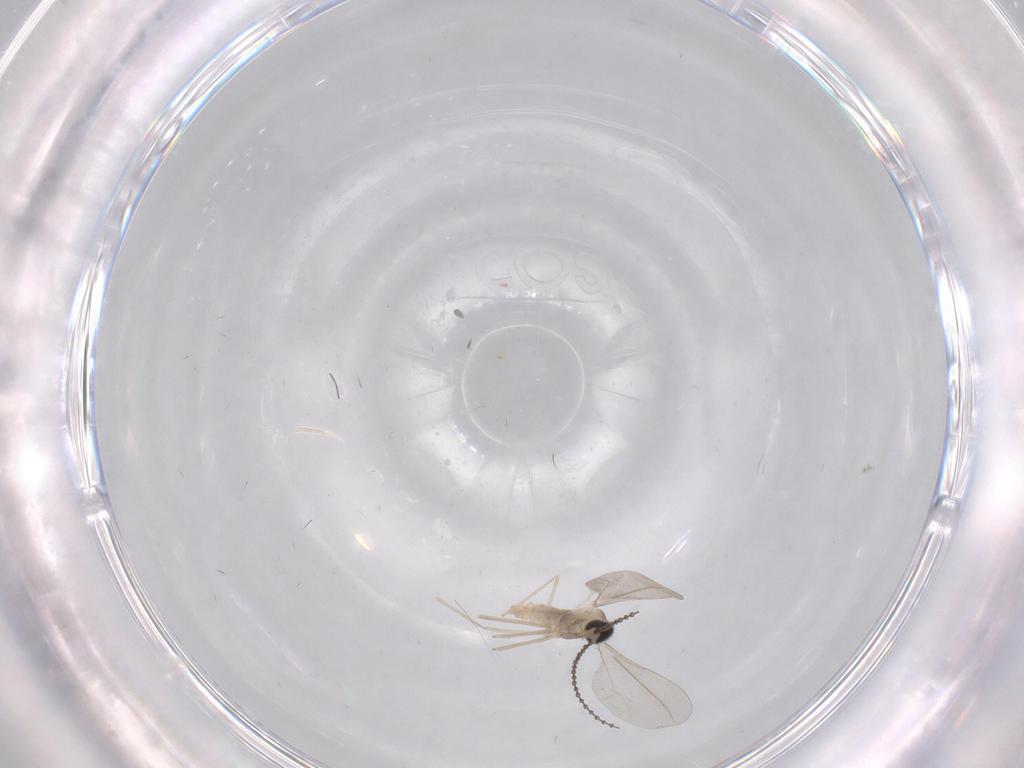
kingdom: Animalia
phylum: Arthropoda
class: Insecta
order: Diptera
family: Cecidomyiidae
